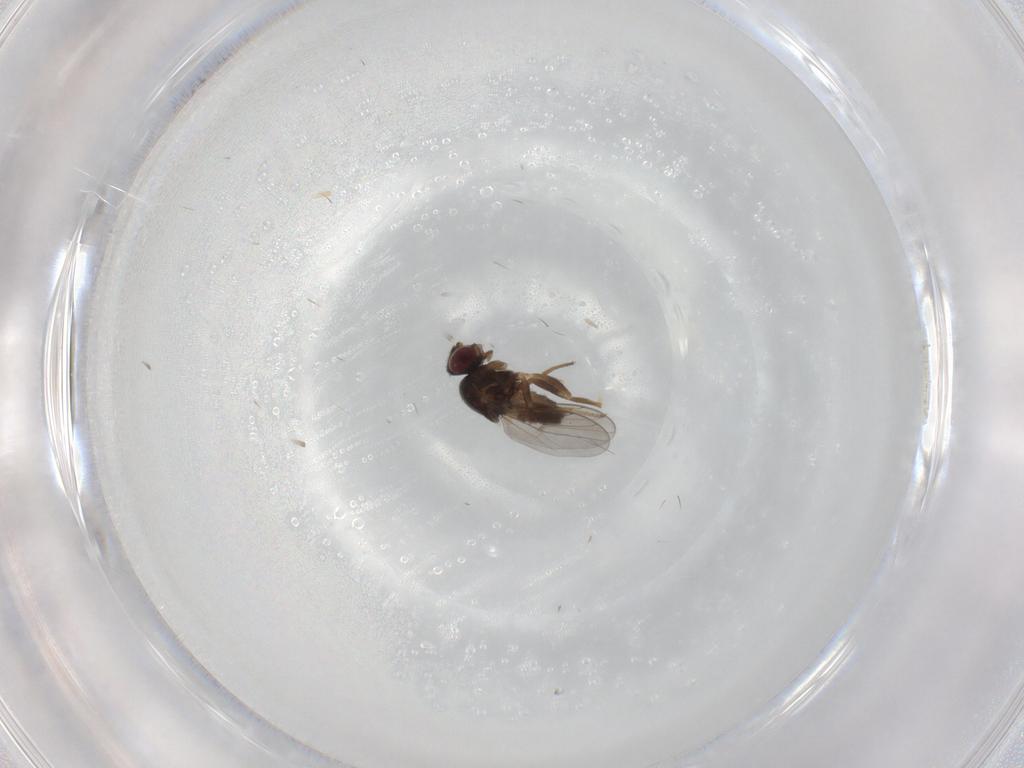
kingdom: Animalia
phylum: Arthropoda
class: Insecta
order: Diptera
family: Chloropidae
